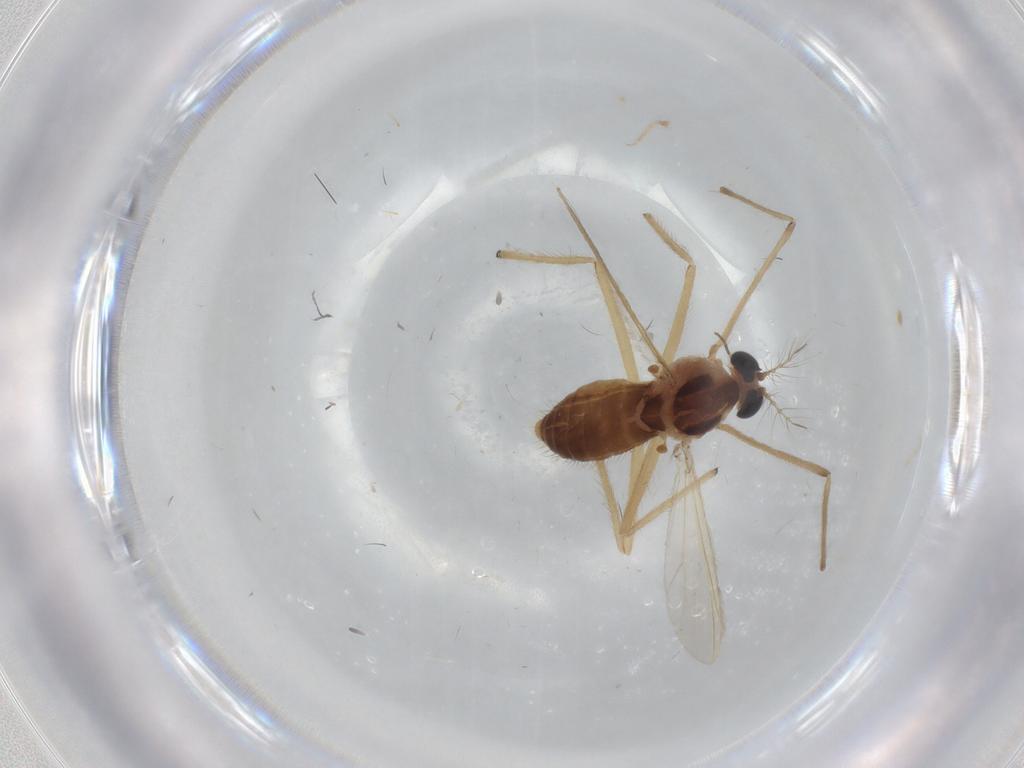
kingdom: Animalia
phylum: Arthropoda
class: Insecta
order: Diptera
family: Chironomidae
